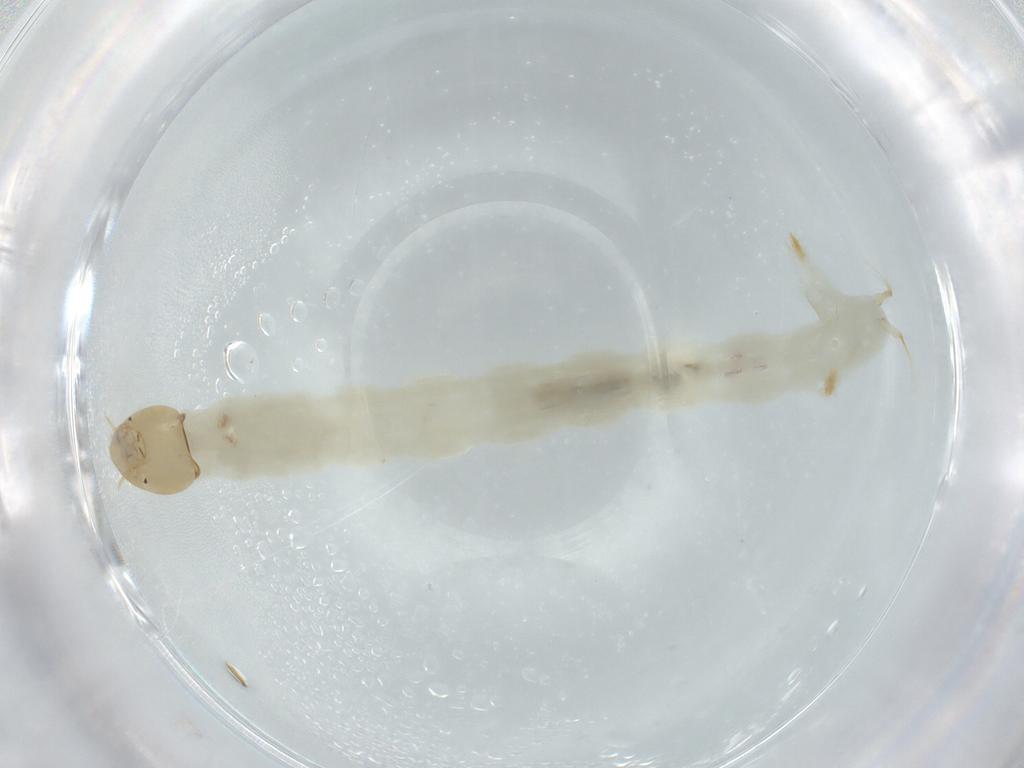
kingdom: Animalia
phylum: Arthropoda
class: Insecta
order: Diptera
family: Chironomidae
